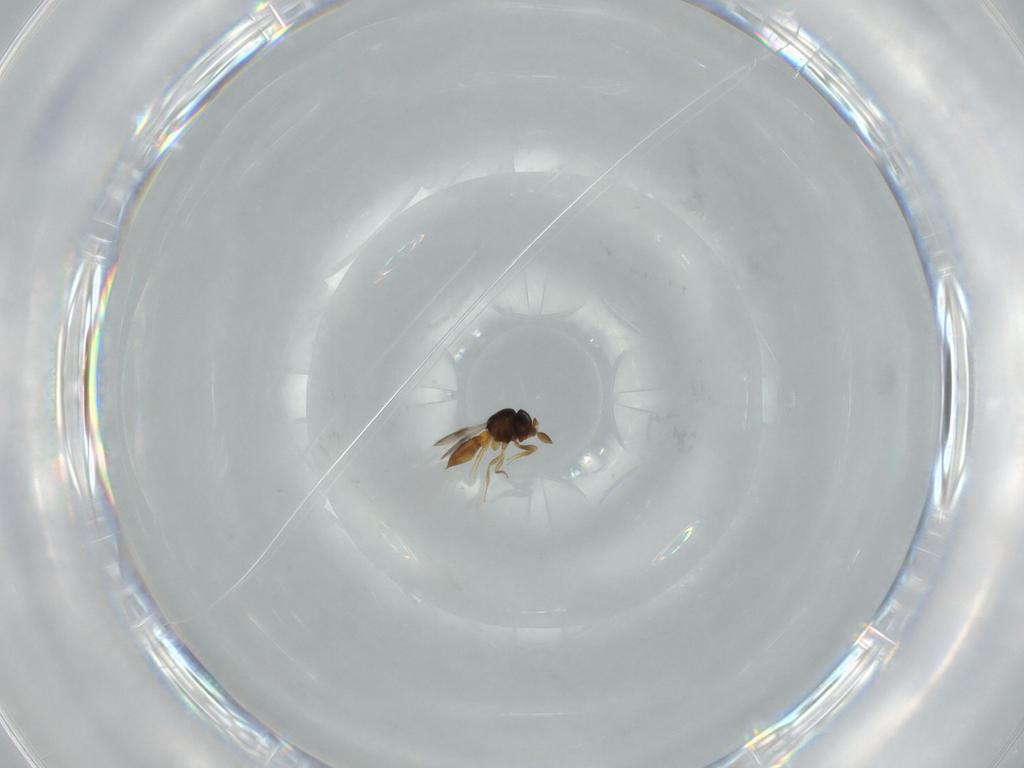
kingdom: Animalia
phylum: Arthropoda
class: Insecta
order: Hymenoptera
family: Scelionidae
